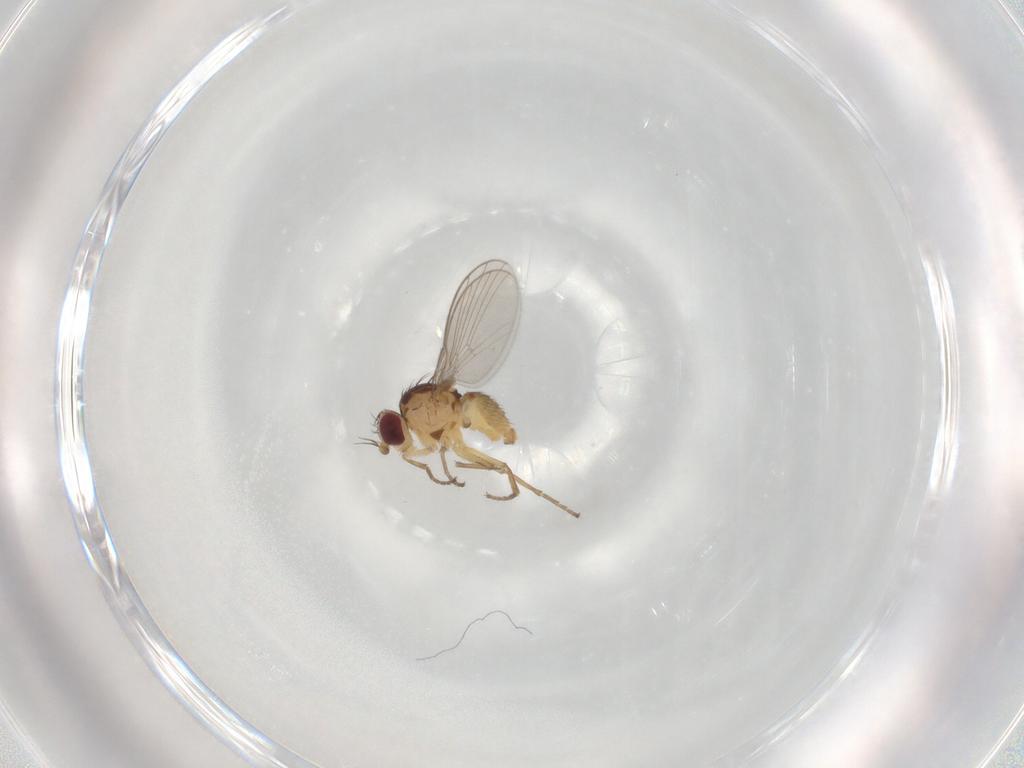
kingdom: Animalia
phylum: Arthropoda
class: Insecta
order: Diptera
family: Agromyzidae
